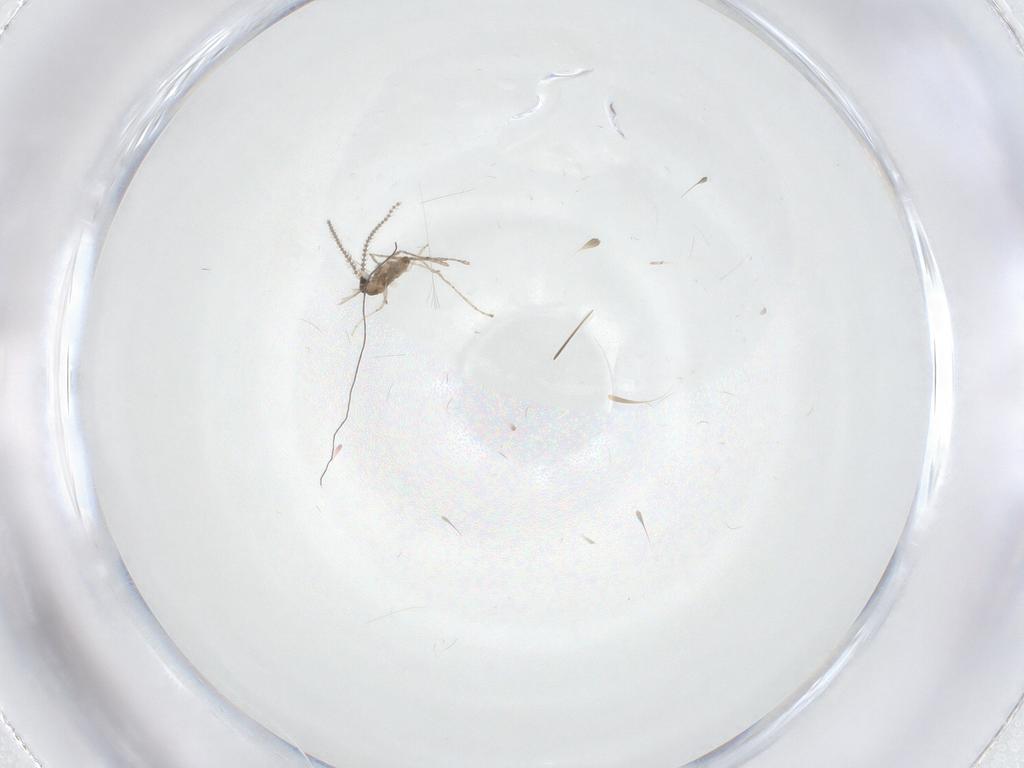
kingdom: Animalia
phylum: Arthropoda
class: Insecta
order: Diptera
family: Cecidomyiidae
